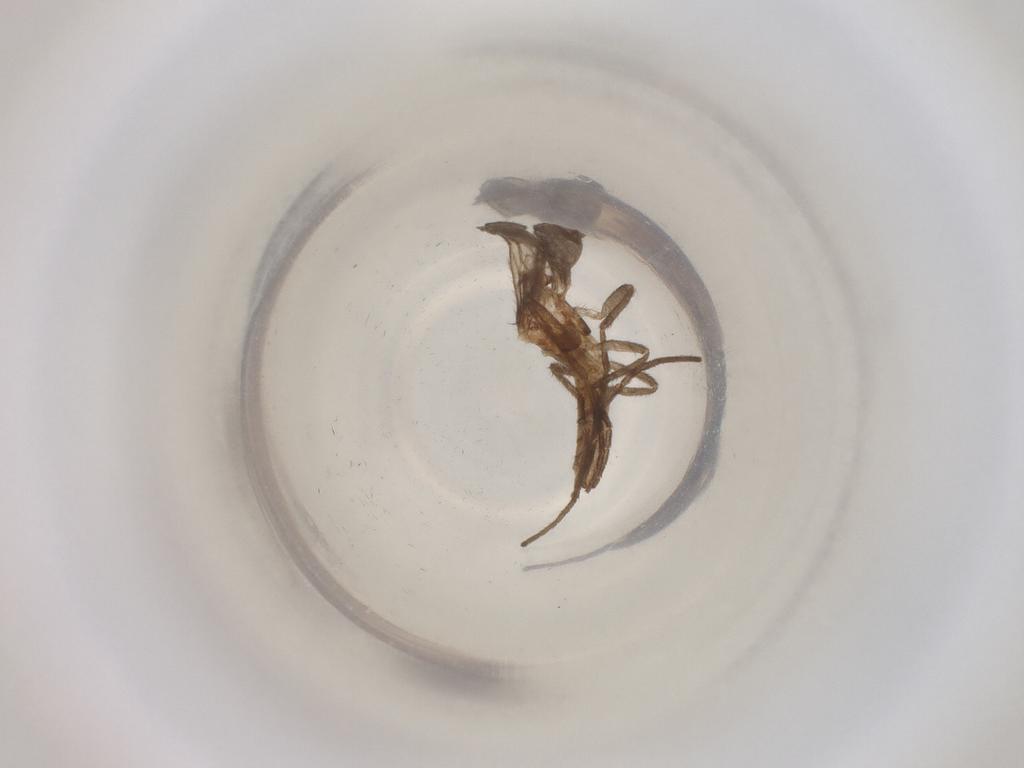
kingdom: Animalia
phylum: Arthropoda
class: Insecta
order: Diptera
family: Cecidomyiidae
